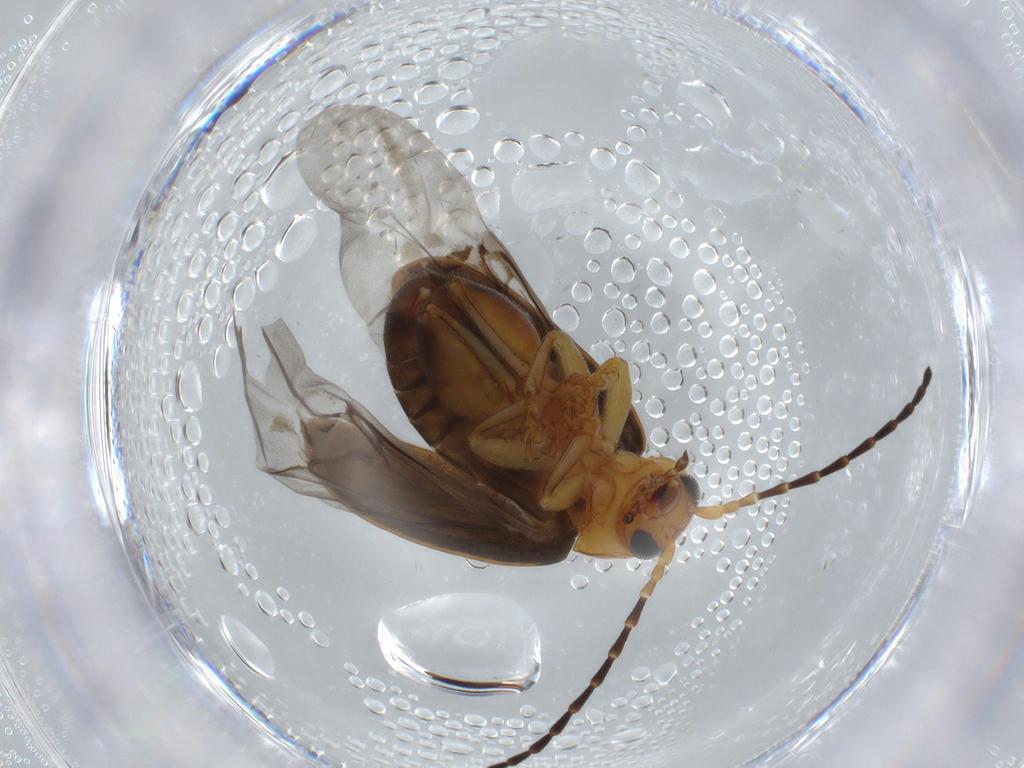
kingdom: Animalia
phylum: Arthropoda
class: Insecta
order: Coleoptera
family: Chrysomelidae
